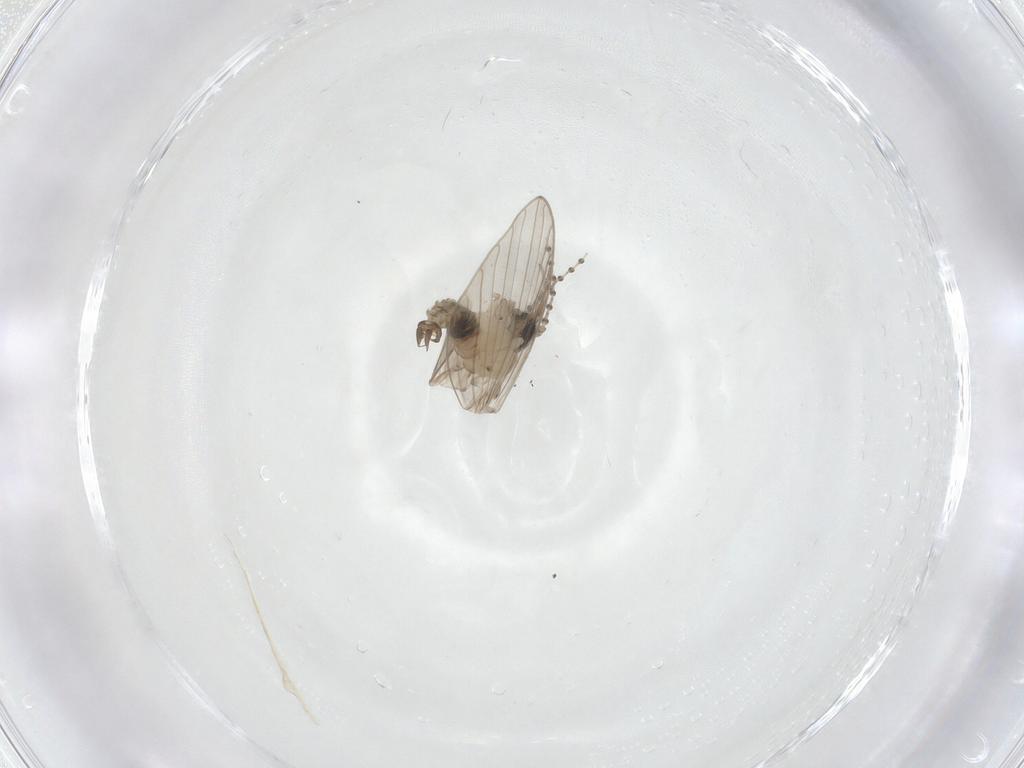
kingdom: Animalia
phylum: Arthropoda
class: Insecta
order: Diptera
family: Psychodidae
